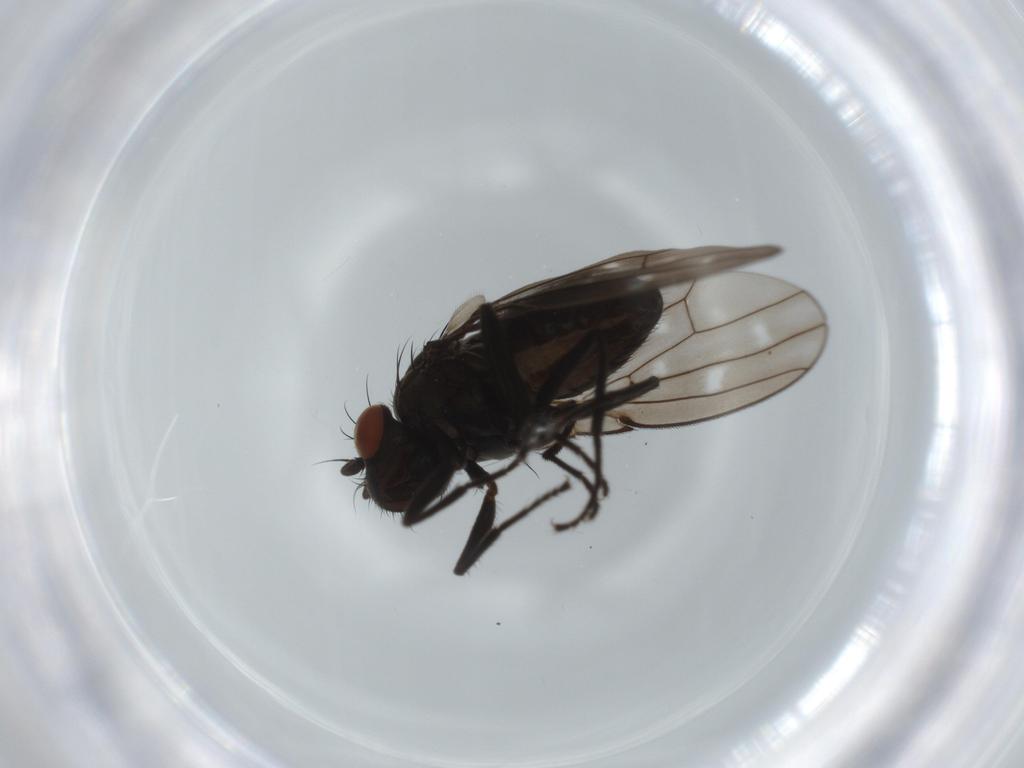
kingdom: Animalia
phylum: Arthropoda
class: Insecta
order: Diptera
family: Ephydridae
